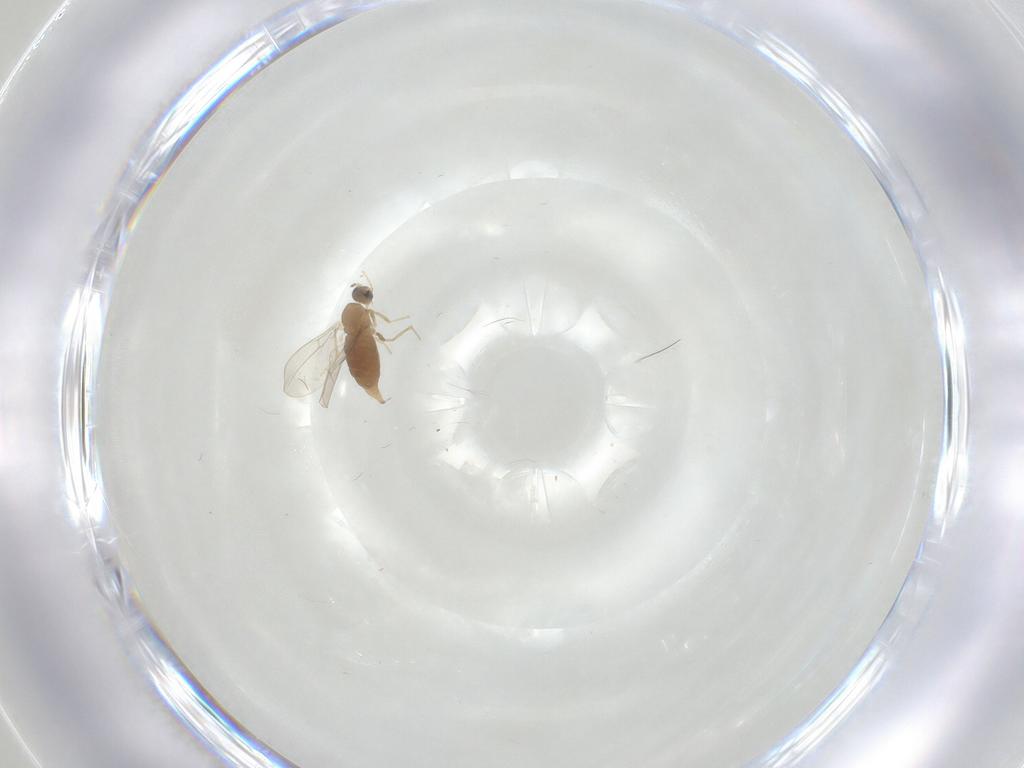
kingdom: Animalia
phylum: Arthropoda
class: Insecta
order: Diptera
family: Cecidomyiidae
